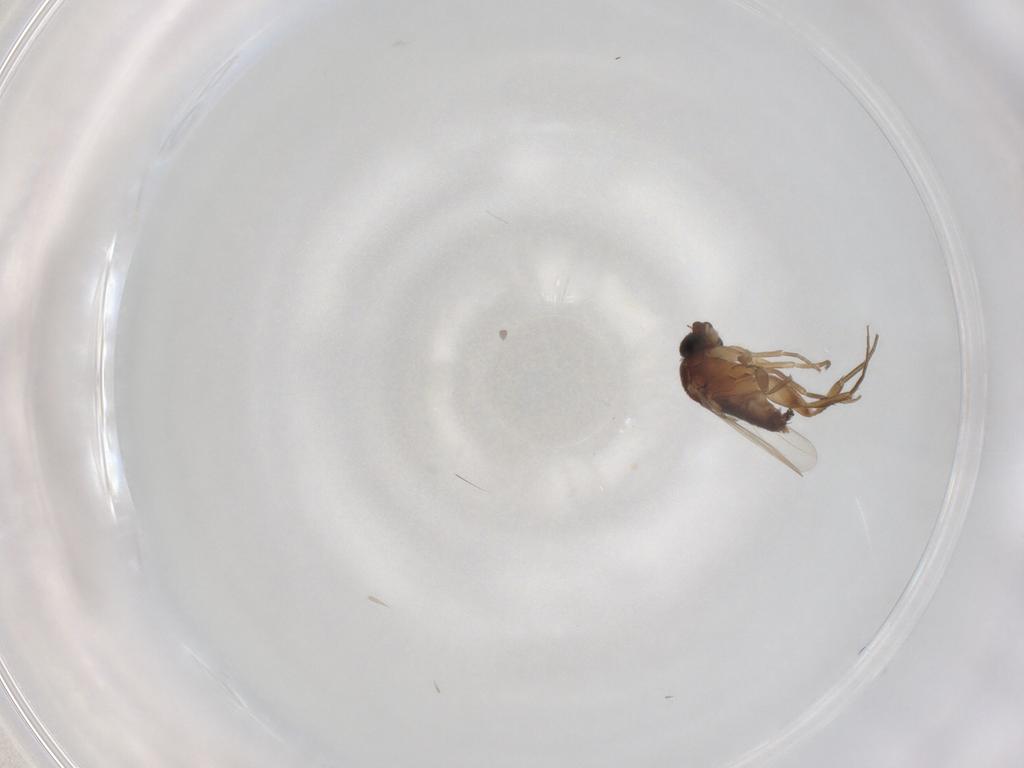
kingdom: Animalia
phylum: Arthropoda
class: Insecta
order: Diptera
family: Phoridae
